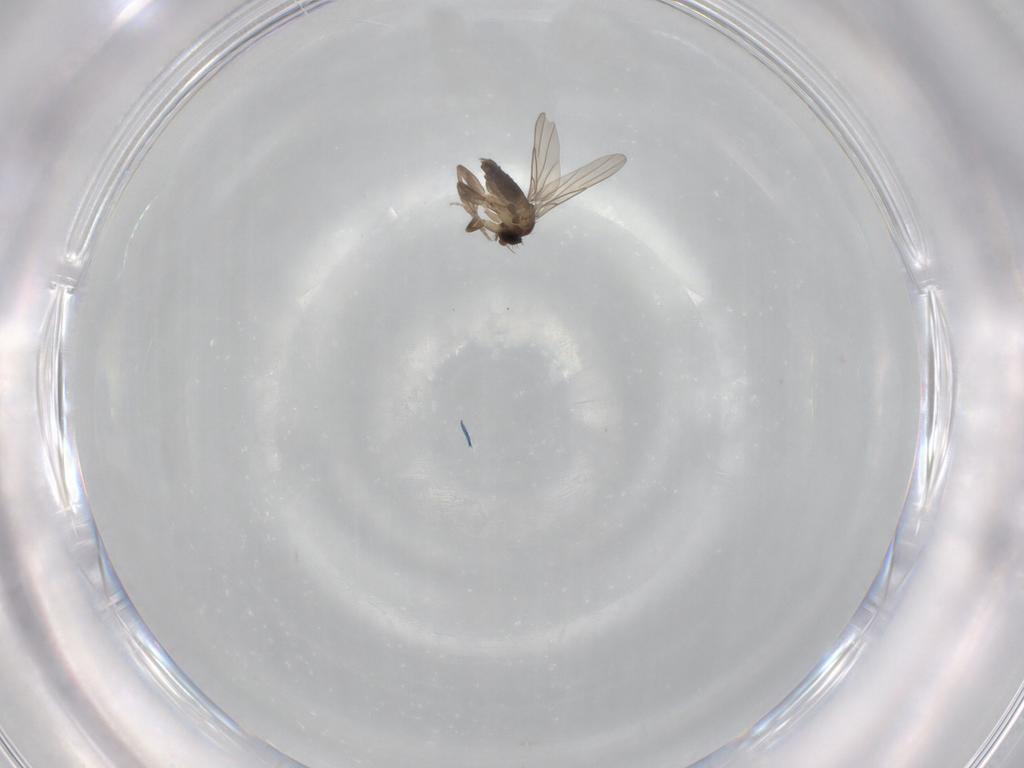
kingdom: Animalia
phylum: Arthropoda
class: Insecta
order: Diptera
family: Phoridae
